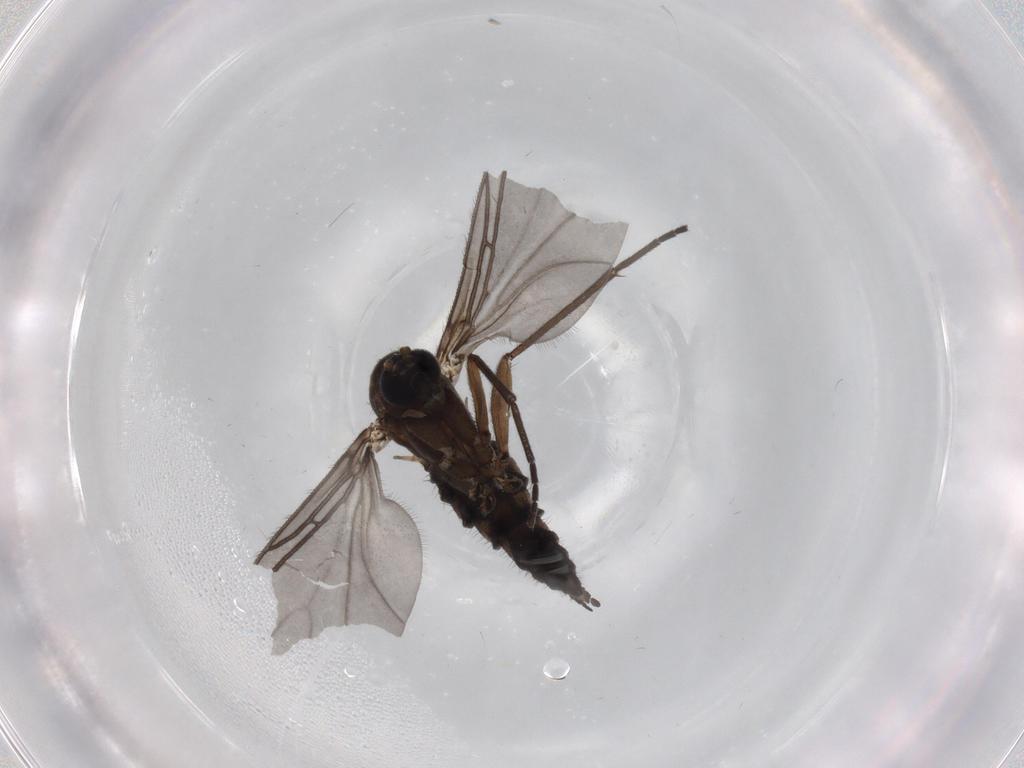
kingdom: Animalia
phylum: Arthropoda
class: Insecta
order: Diptera
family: Sciaridae
